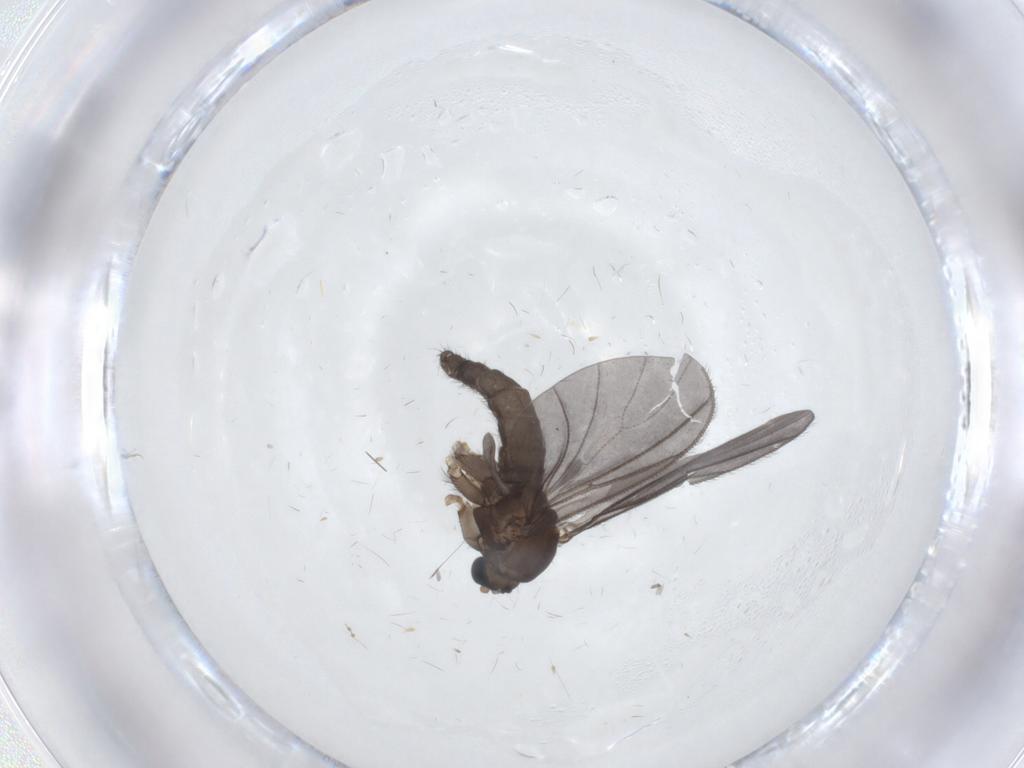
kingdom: Animalia
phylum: Arthropoda
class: Insecta
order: Diptera
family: Sciaridae
